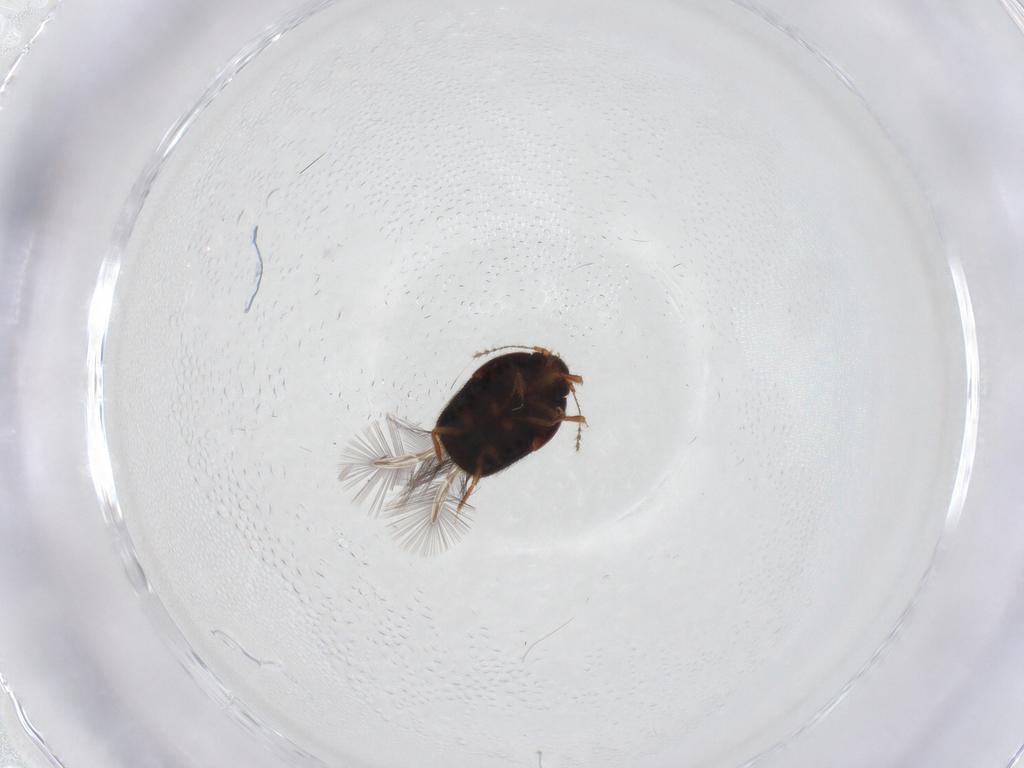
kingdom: Animalia
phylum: Arthropoda
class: Insecta
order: Coleoptera
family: Ptiliidae
